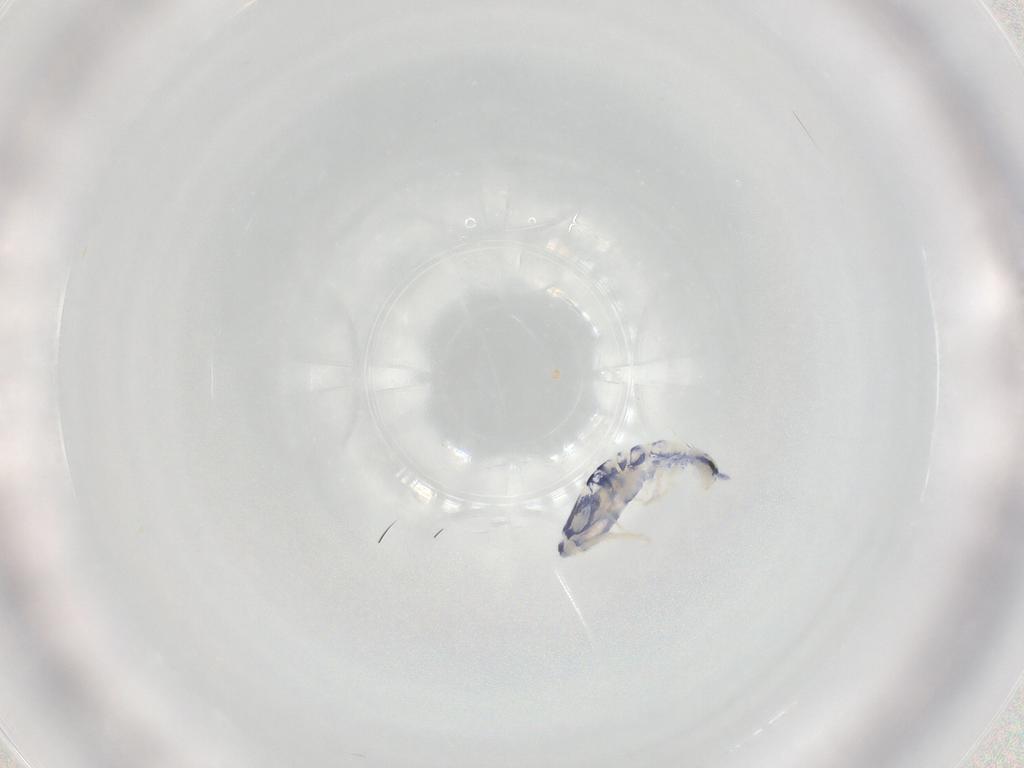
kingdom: Animalia
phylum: Arthropoda
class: Collembola
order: Entomobryomorpha
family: Entomobryidae
